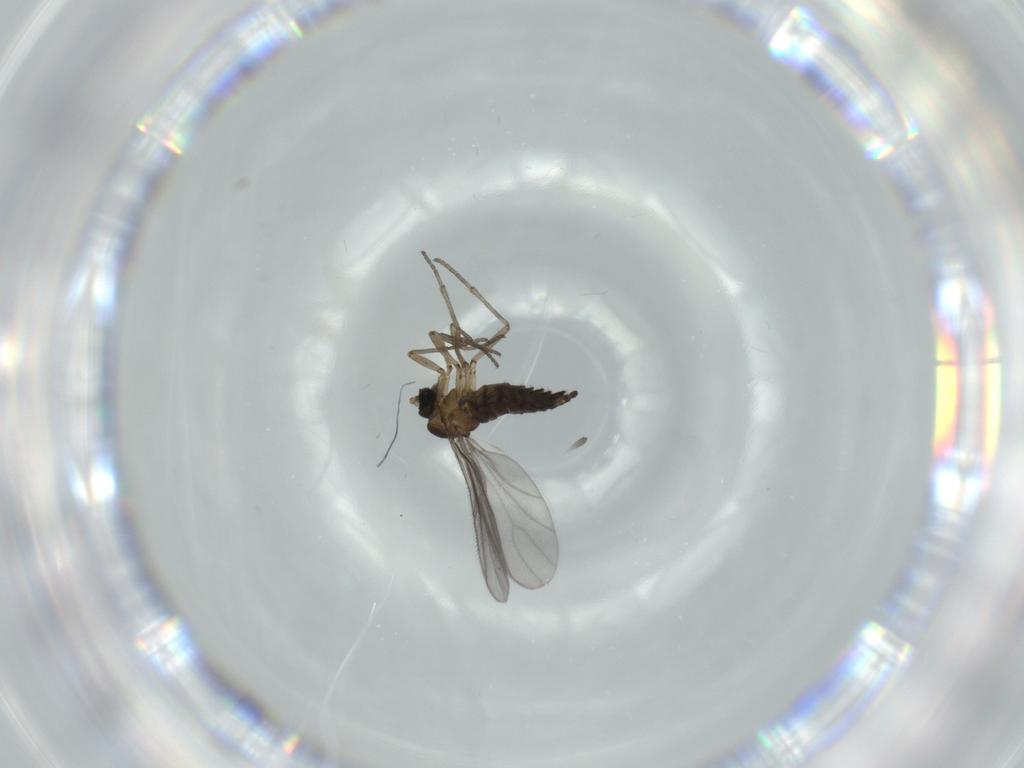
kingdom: Animalia
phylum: Arthropoda
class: Insecta
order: Diptera
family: Sciaridae
